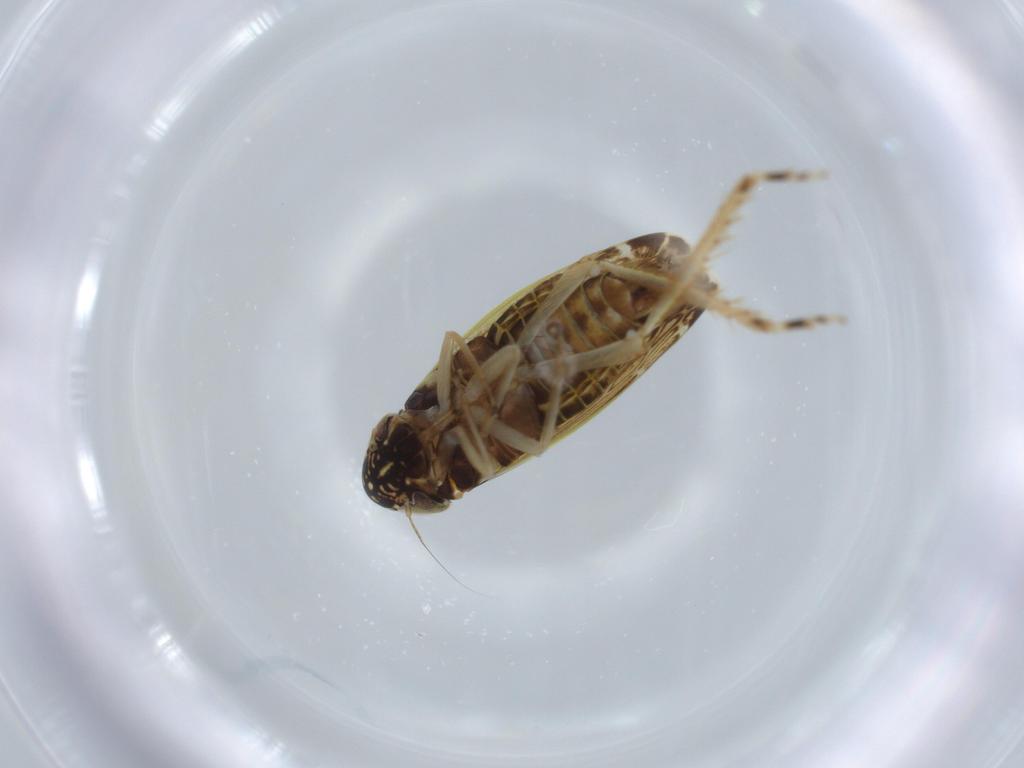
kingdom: Animalia
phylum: Arthropoda
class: Insecta
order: Hemiptera
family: Cicadellidae
